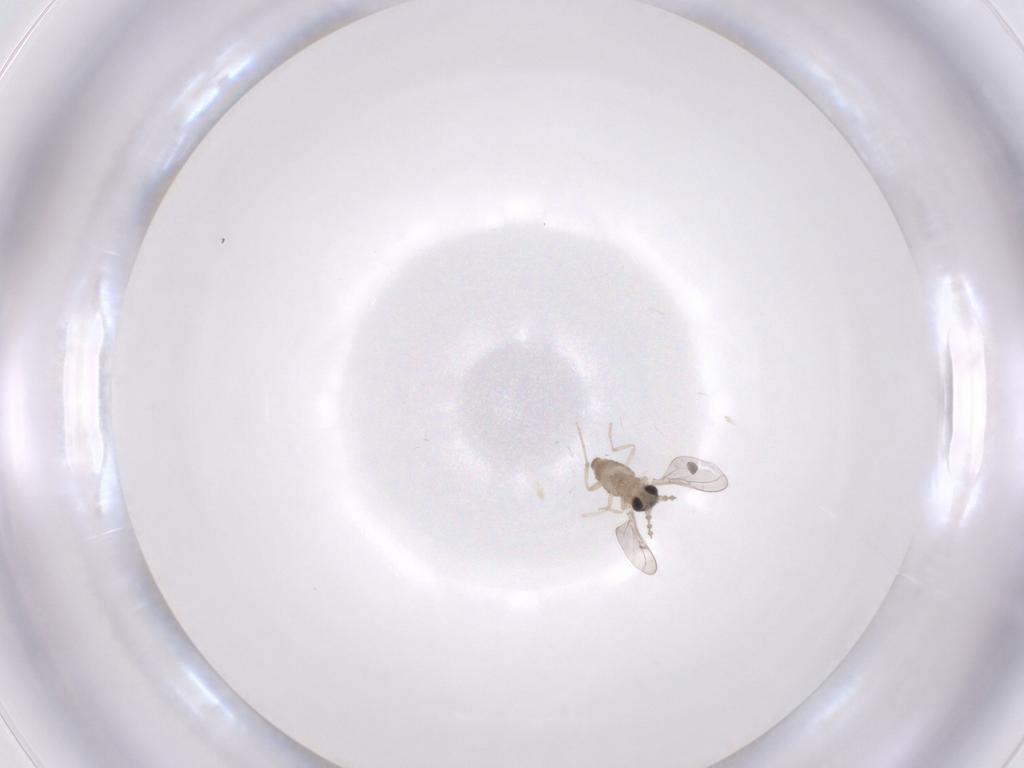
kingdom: Animalia
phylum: Arthropoda
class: Insecta
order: Diptera
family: Cecidomyiidae
